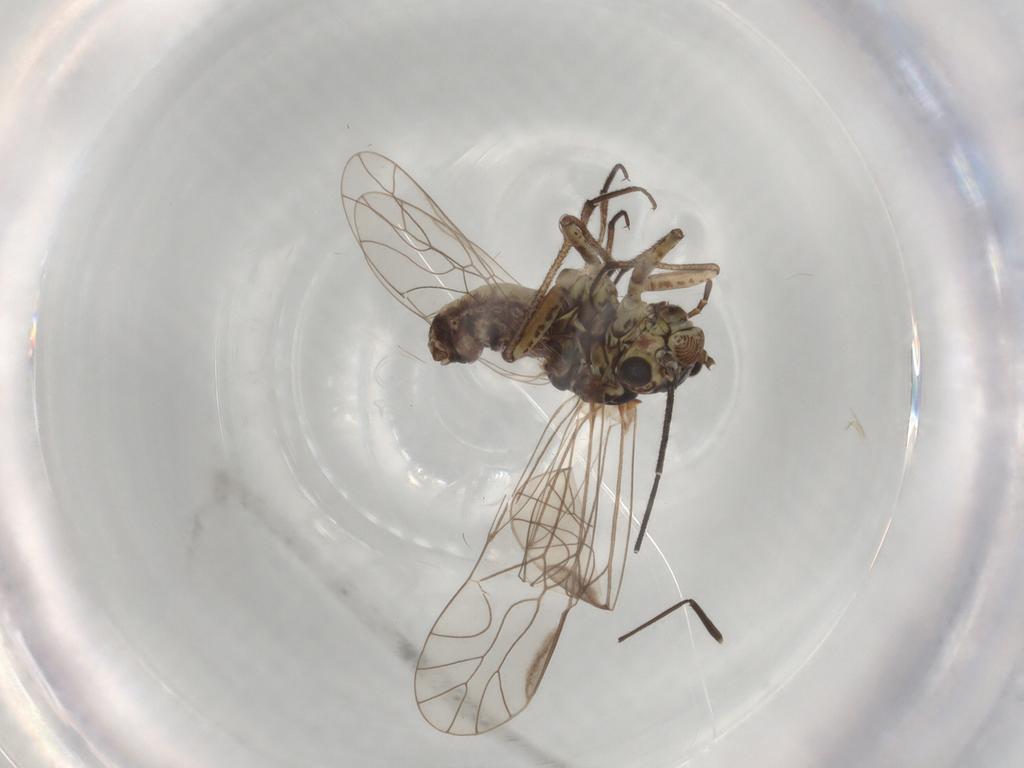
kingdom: Animalia
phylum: Arthropoda
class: Insecta
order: Hemiptera
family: Aphididae
